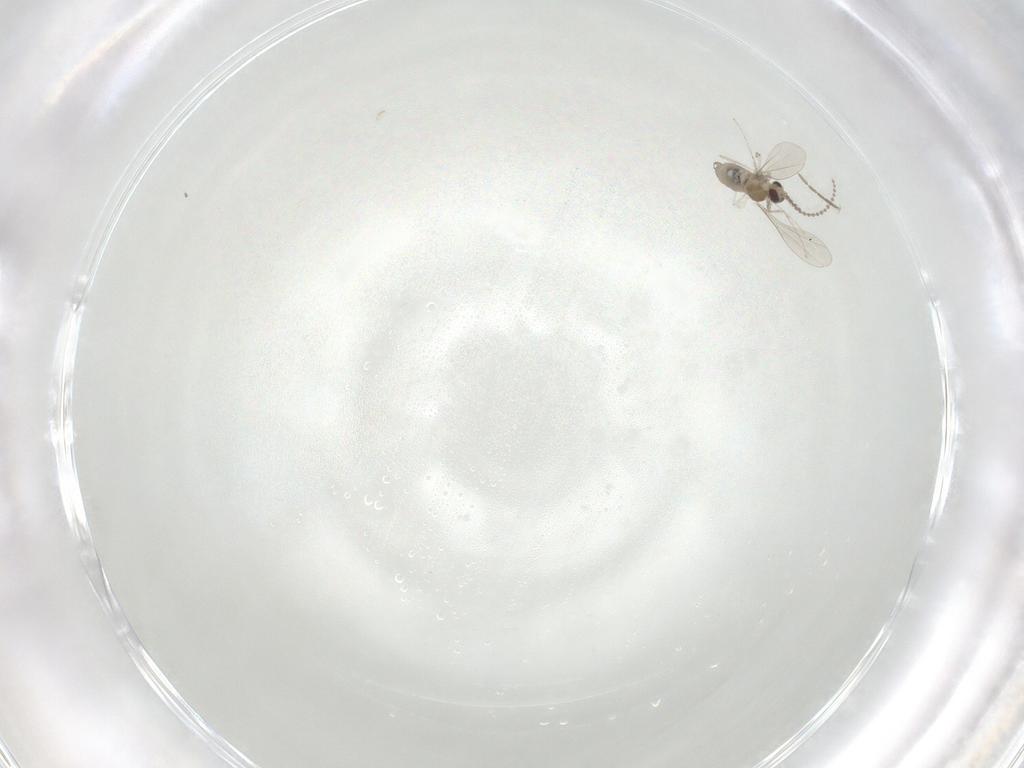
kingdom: Animalia
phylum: Arthropoda
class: Insecta
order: Diptera
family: Cecidomyiidae
